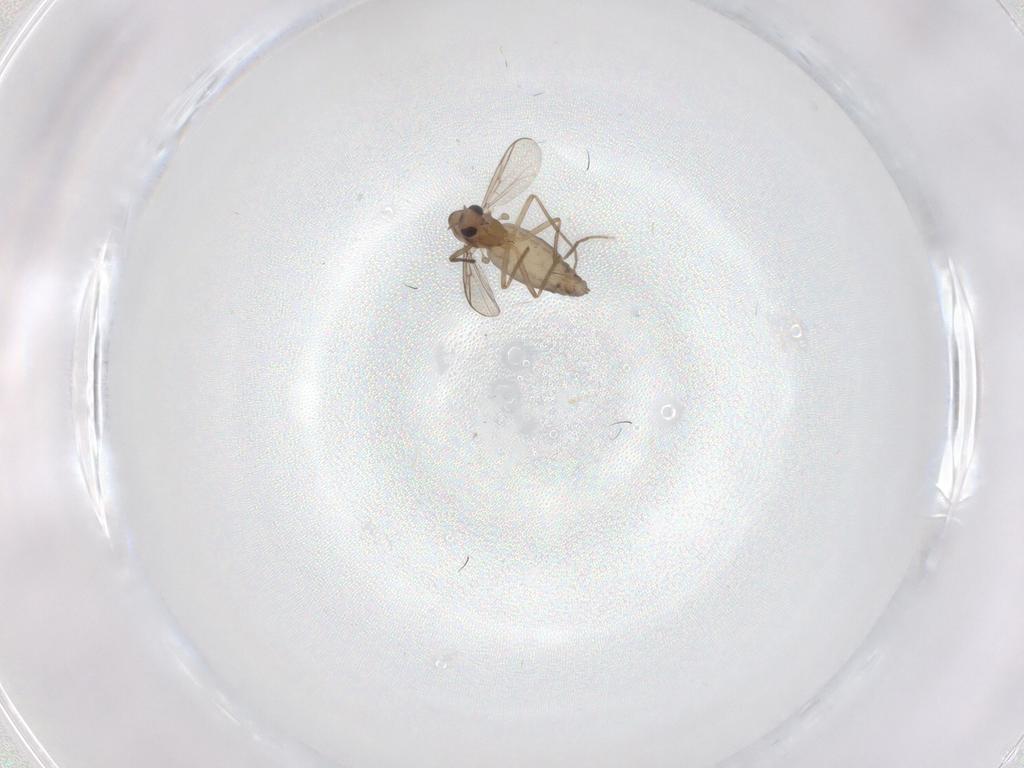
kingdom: Animalia
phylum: Arthropoda
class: Insecta
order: Diptera
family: Chironomidae
